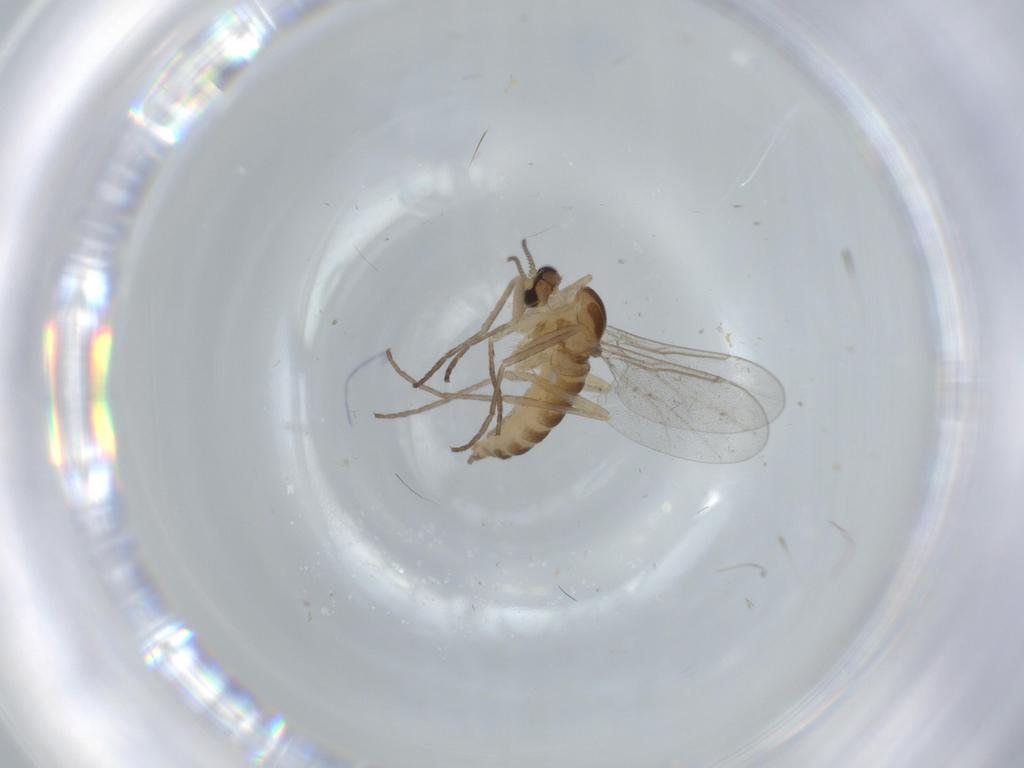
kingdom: Animalia
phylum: Arthropoda
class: Insecta
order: Diptera
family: Cecidomyiidae
